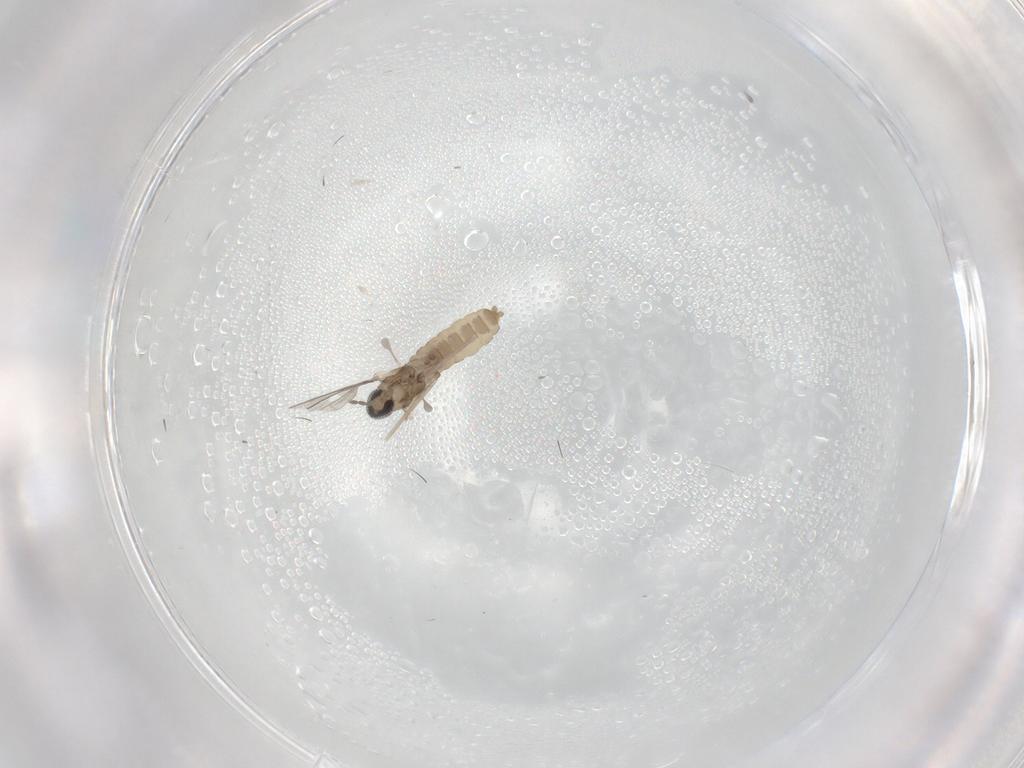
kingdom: Animalia
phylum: Arthropoda
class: Insecta
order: Diptera
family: Cecidomyiidae
